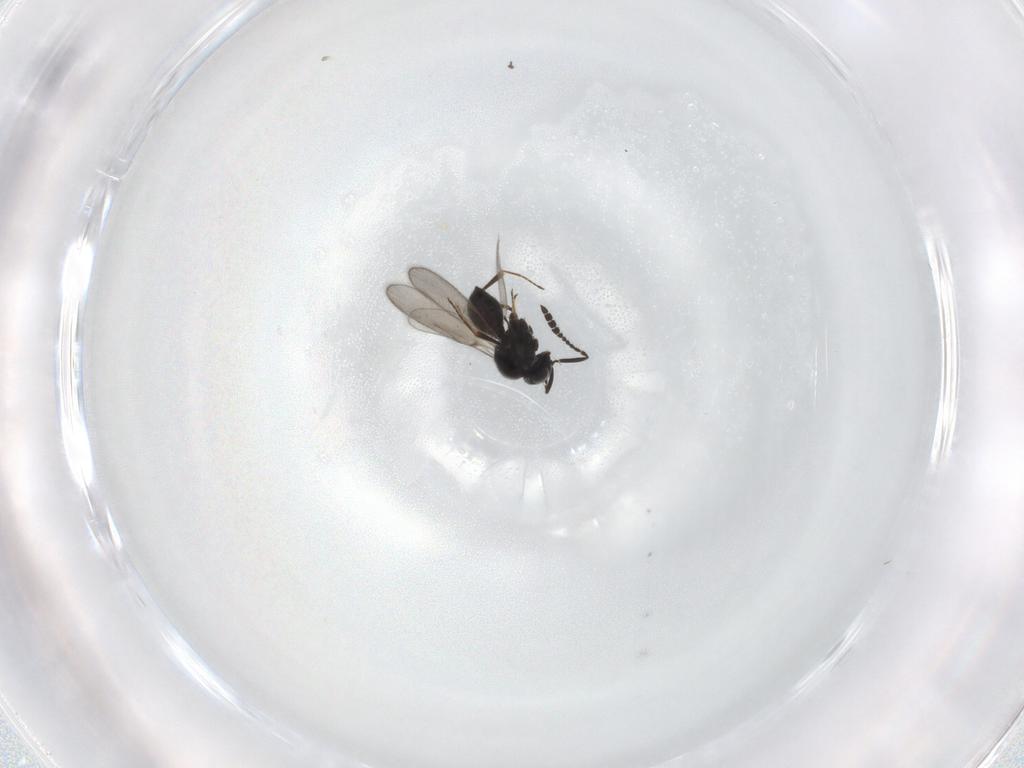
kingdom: Animalia
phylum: Arthropoda
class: Insecta
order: Hymenoptera
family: Scelionidae
